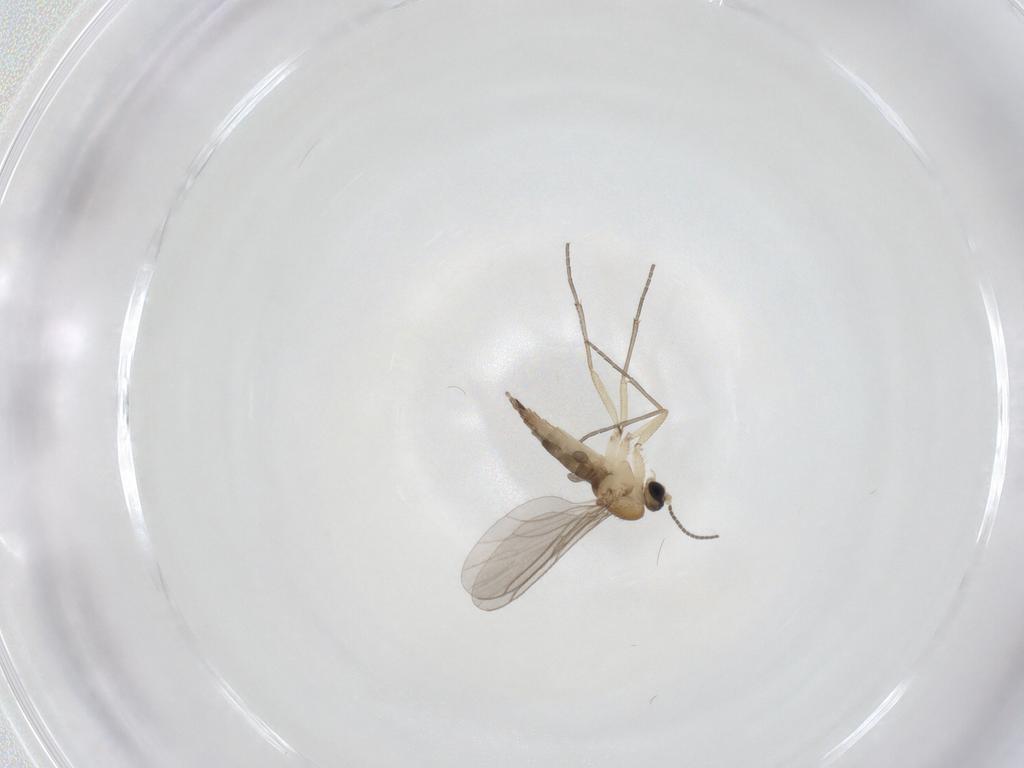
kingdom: Animalia
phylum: Arthropoda
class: Insecta
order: Diptera
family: Sciaridae
